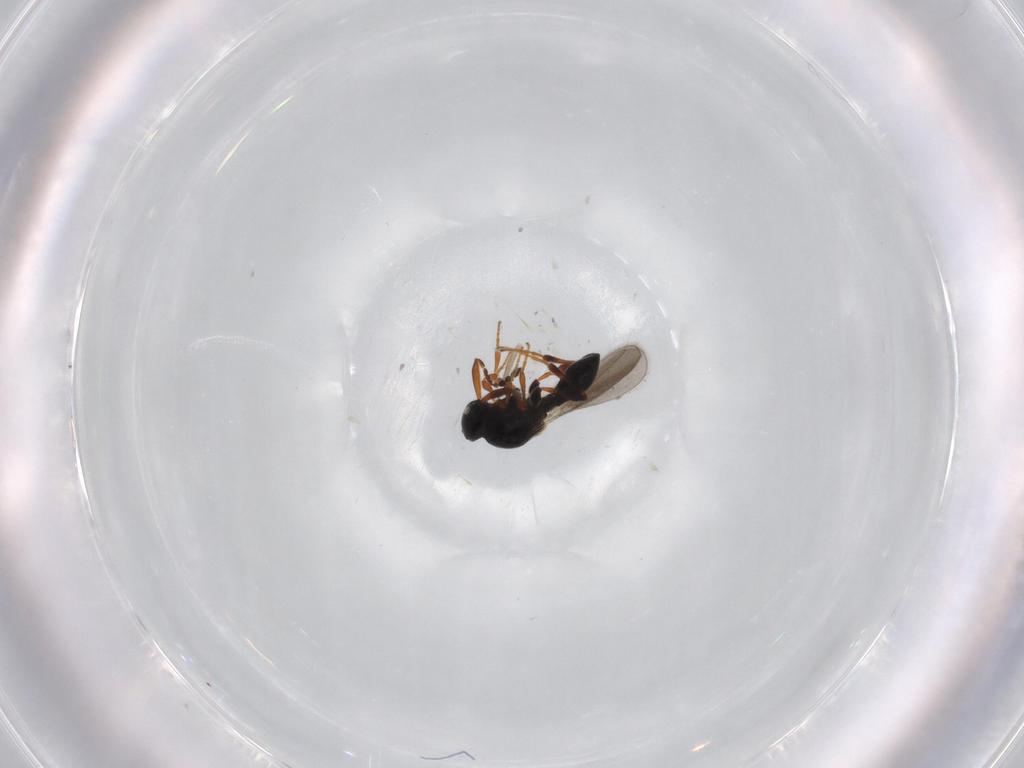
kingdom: Animalia
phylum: Arthropoda
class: Insecta
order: Hymenoptera
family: Platygastridae
